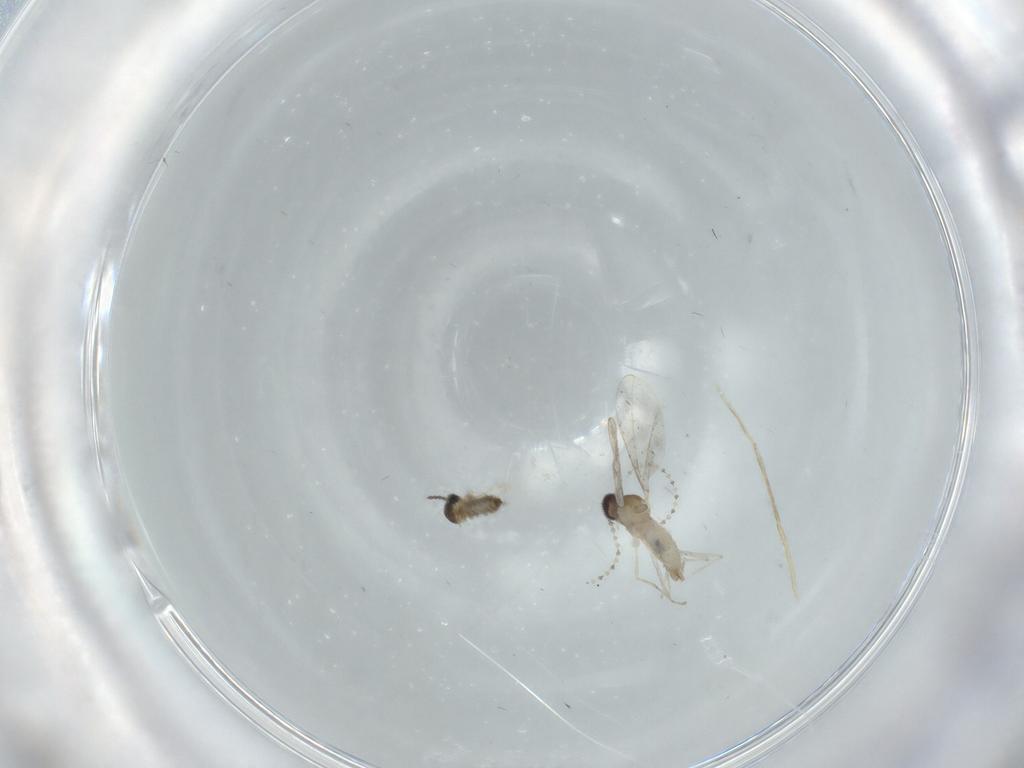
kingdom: Animalia
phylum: Arthropoda
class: Insecta
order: Diptera
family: Cecidomyiidae
